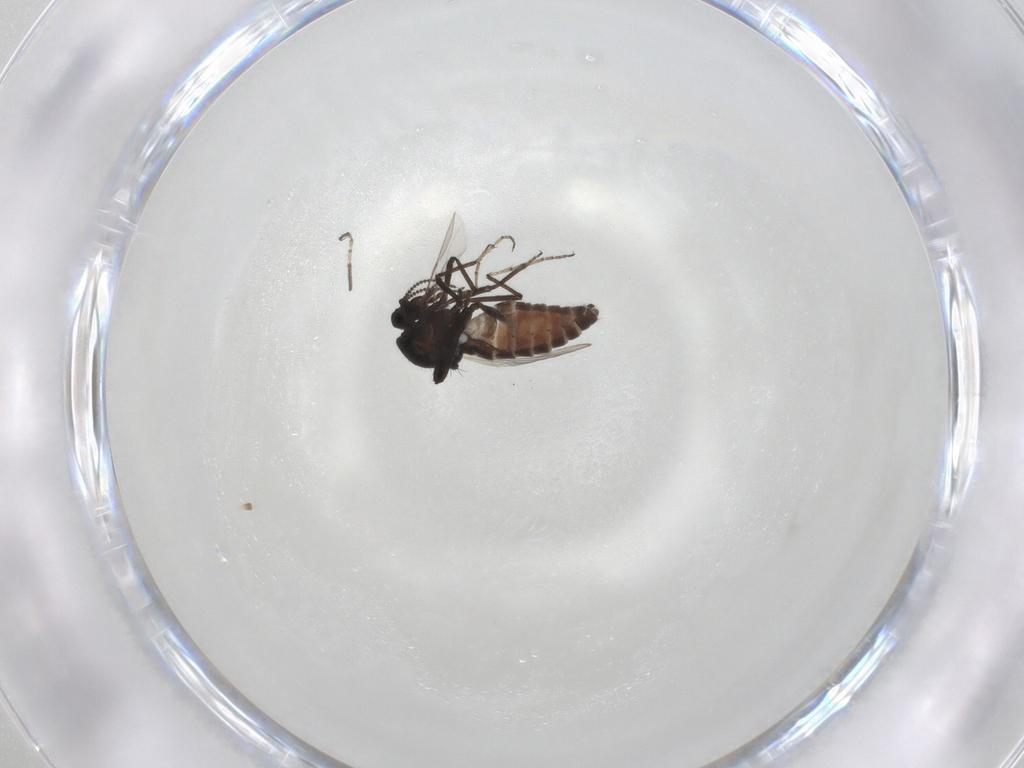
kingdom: Animalia
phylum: Arthropoda
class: Insecta
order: Diptera
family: Ceratopogonidae
